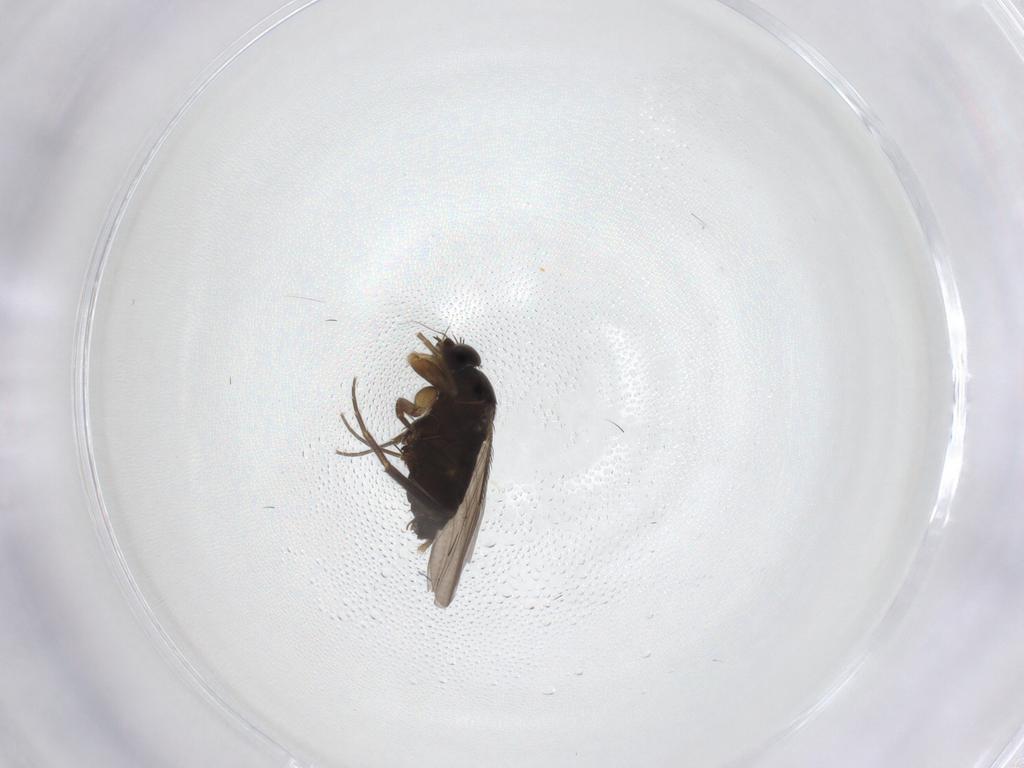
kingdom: Animalia
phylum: Arthropoda
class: Insecta
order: Diptera
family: Phoridae
